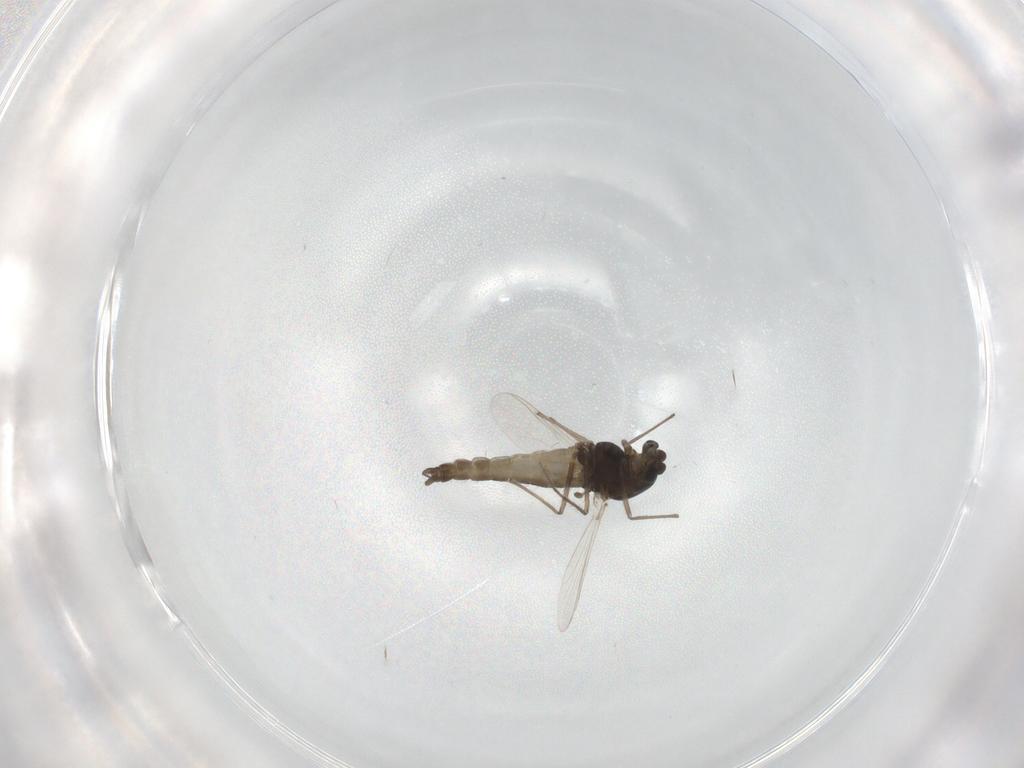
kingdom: Animalia
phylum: Arthropoda
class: Insecta
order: Diptera
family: Chironomidae
